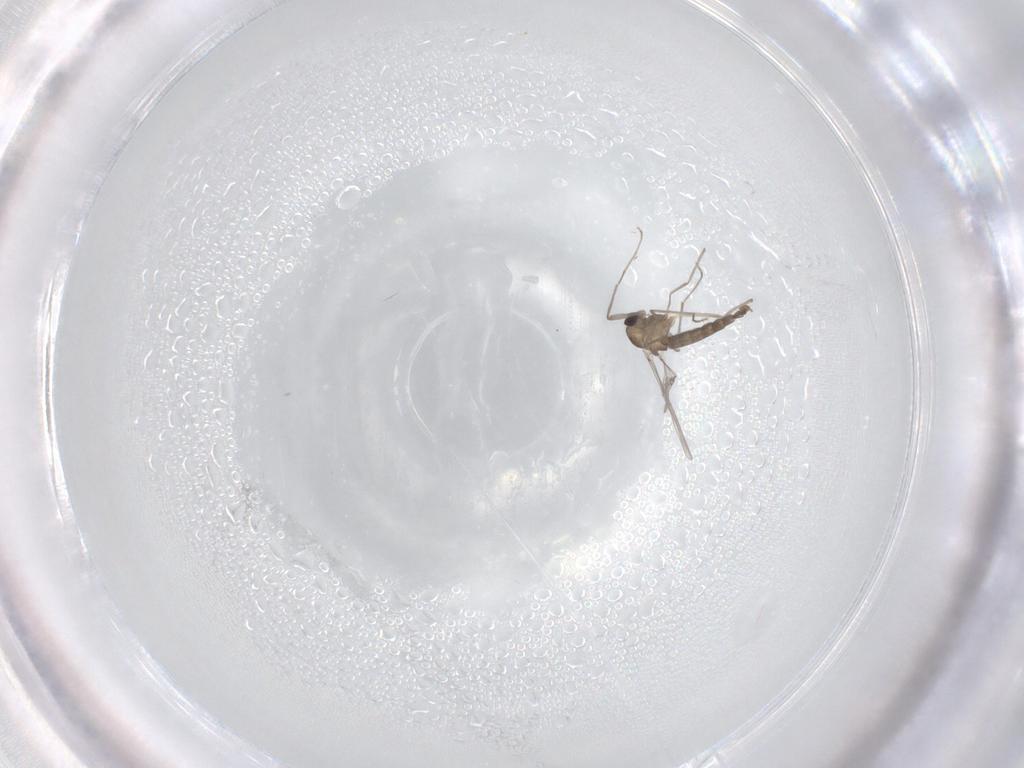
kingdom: Animalia
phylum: Arthropoda
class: Insecta
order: Diptera
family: Chironomidae
